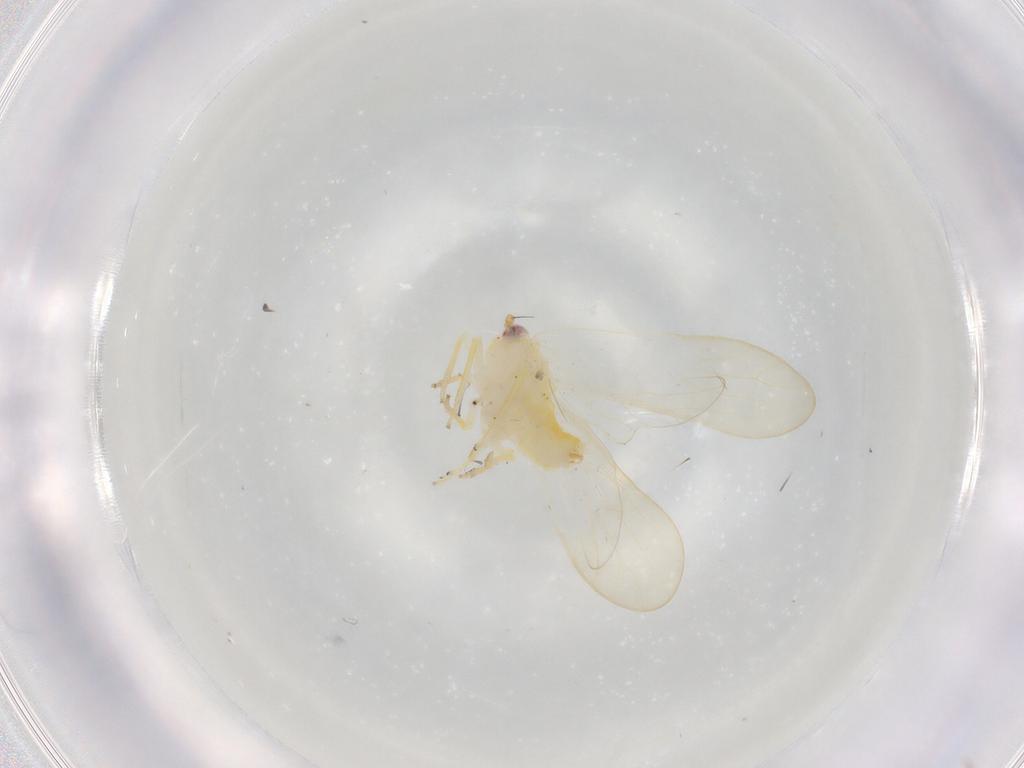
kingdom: Animalia
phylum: Arthropoda
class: Insecta
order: Hemiptera
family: Delphacidae
